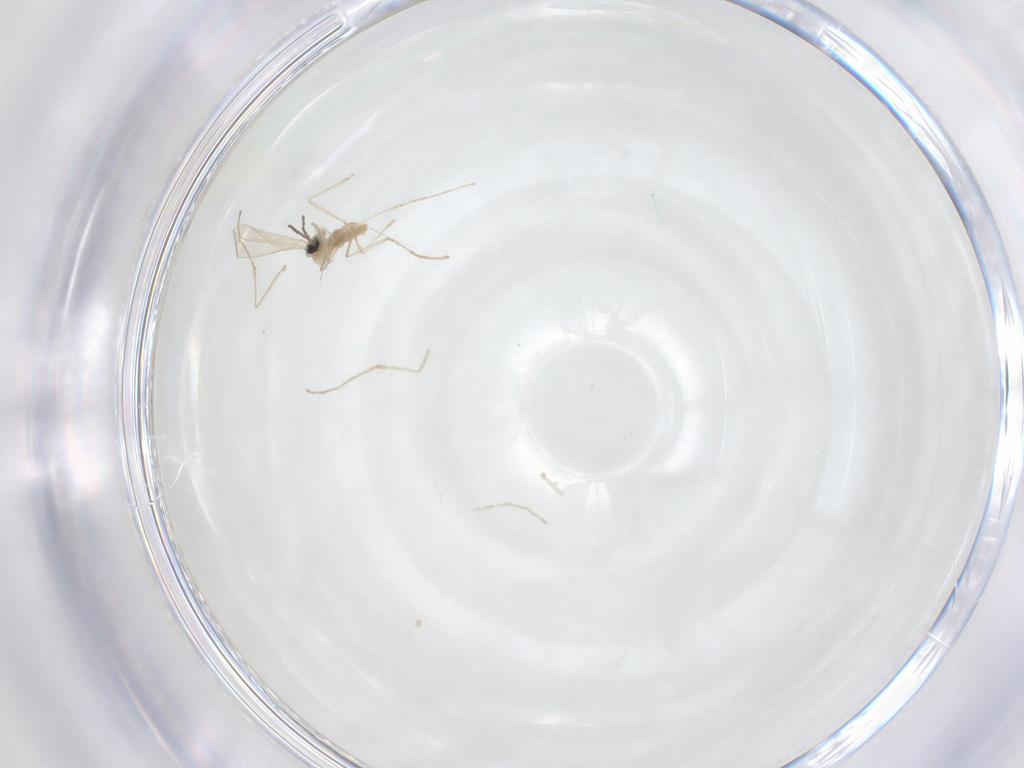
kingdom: Animalia
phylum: Arthropoda
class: Insecta
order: Diptera
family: Cecidomyiidae
